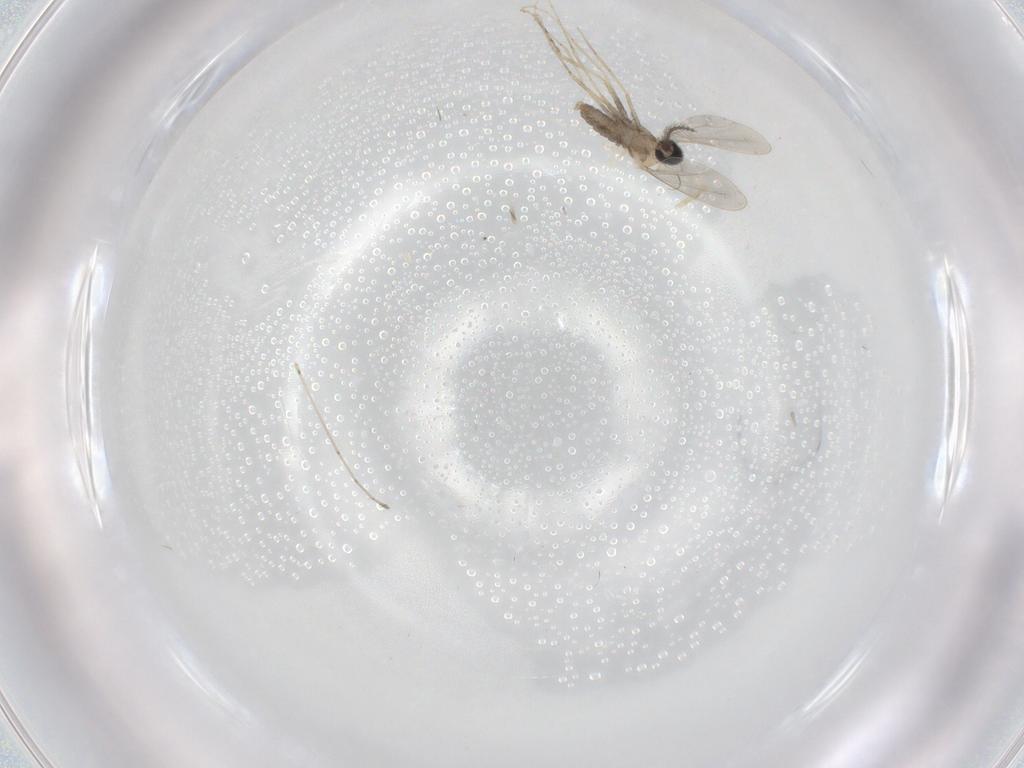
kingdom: Animalia
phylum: Arthropoda
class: Insecta
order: Diptera
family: Cecidomyiidae
